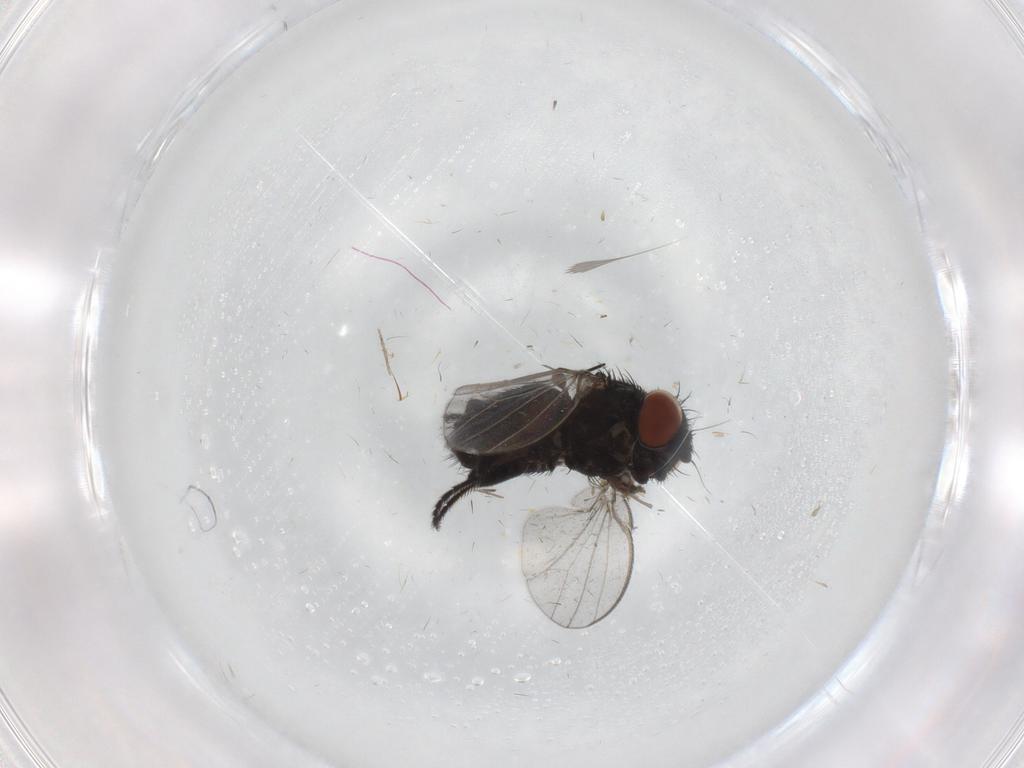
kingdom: Animalia
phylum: Arthropoda
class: Insecta
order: Diptera
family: Milichiidae
